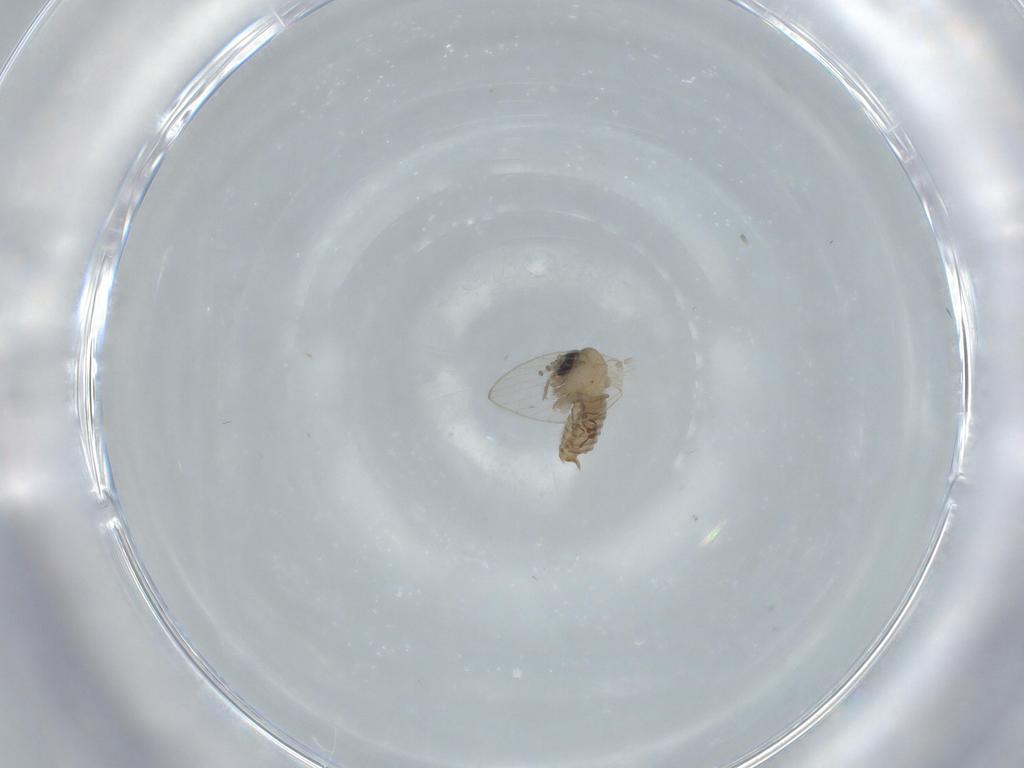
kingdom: Animalia
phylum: Arthropoda
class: Insecta
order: Diptera
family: Psychodidae
